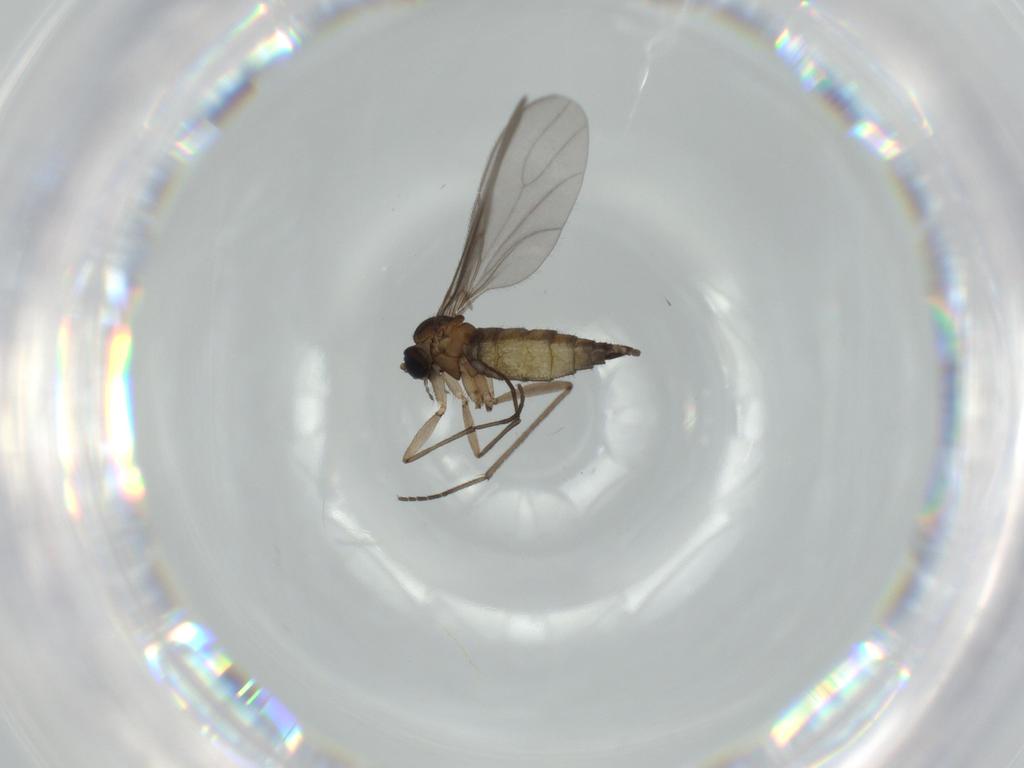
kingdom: Animalia
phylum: Arthropoda
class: Insecta
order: Diptera
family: Sciaridae
